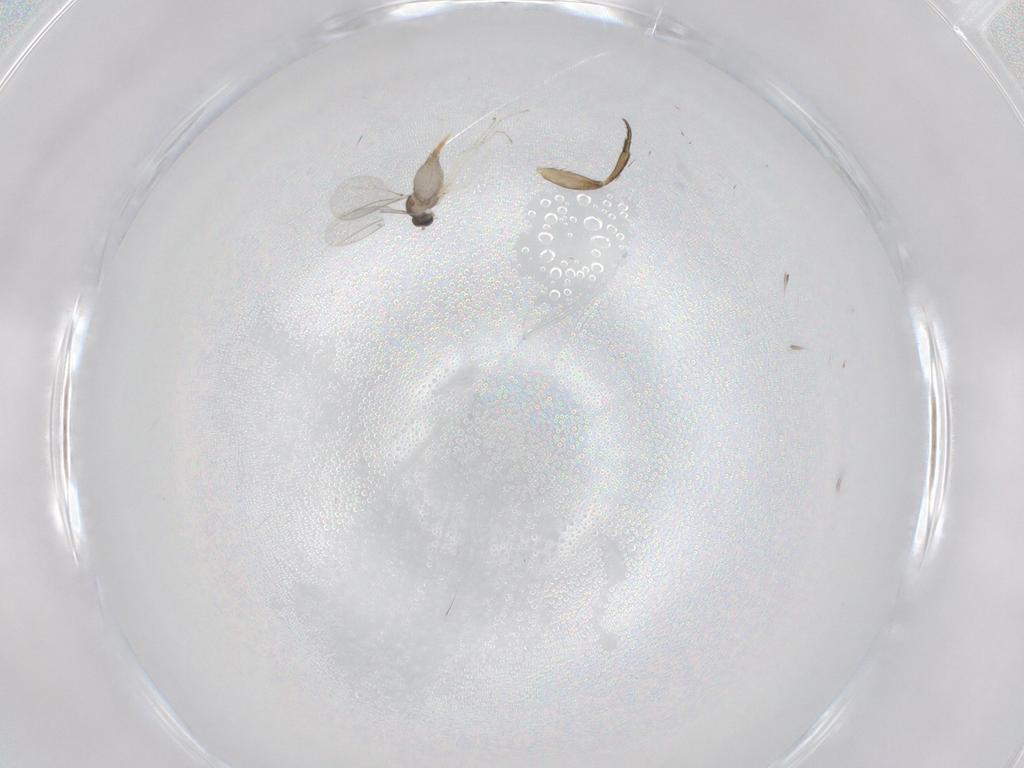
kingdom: Animalia
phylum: Arthropoda
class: Insecta
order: Diptera
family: Cecidomyiidae
